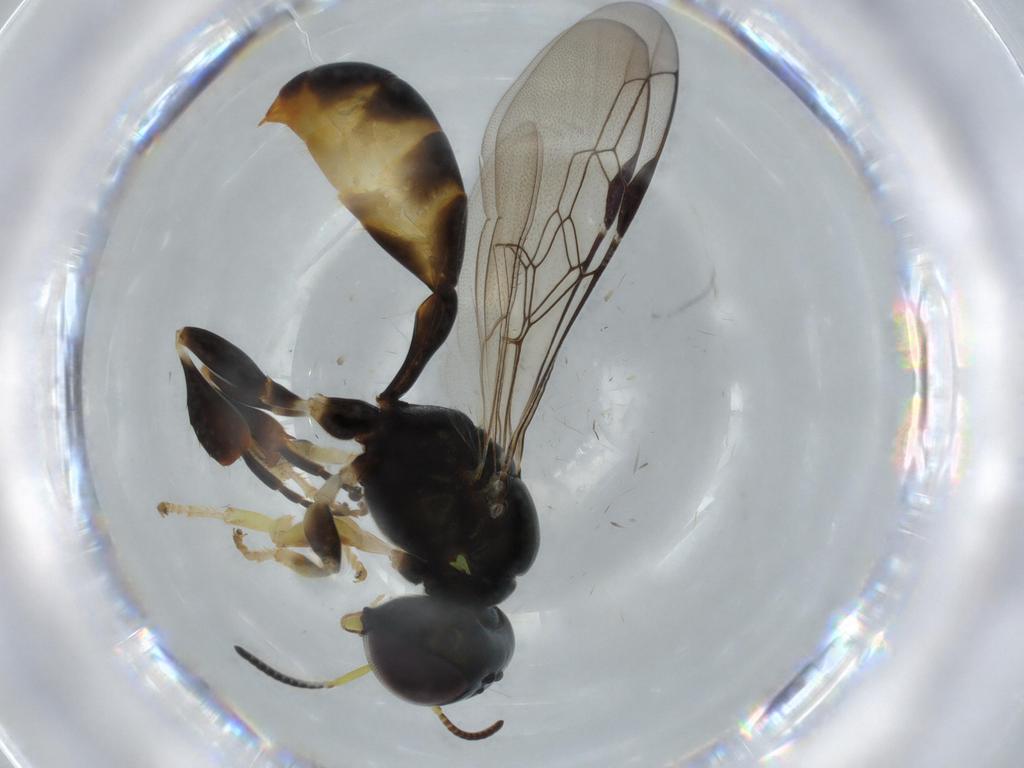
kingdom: Animalia
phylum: Arthropoda
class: Insecta
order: Hymenoptera
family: Crabronidae
